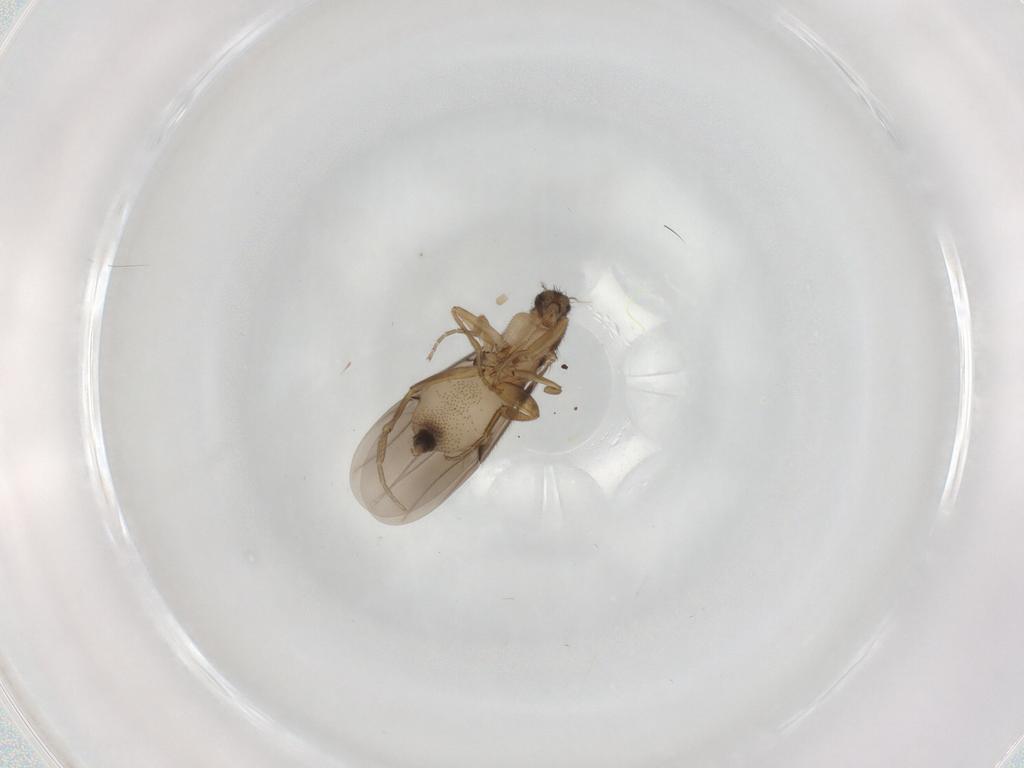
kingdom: Animalia
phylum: Arthropoda
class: Insecta
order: Diptera
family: Phoridae
